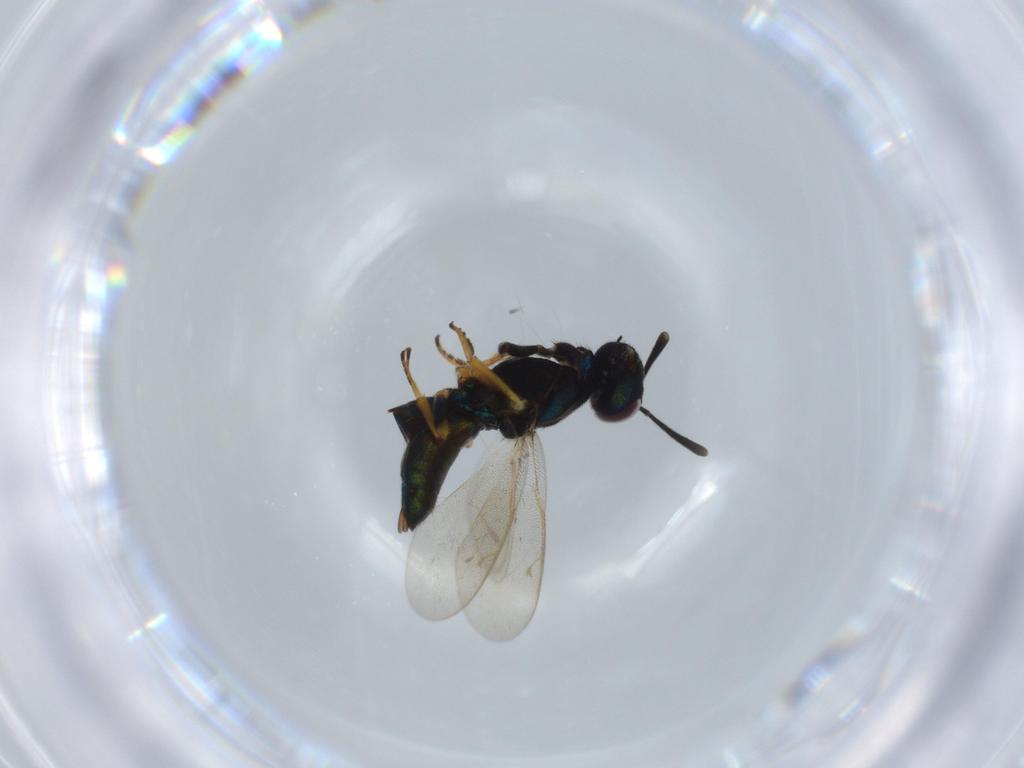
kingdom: Animalia
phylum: Arthropoda
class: Insecta
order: Hymenoptera
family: Eupelmidae
